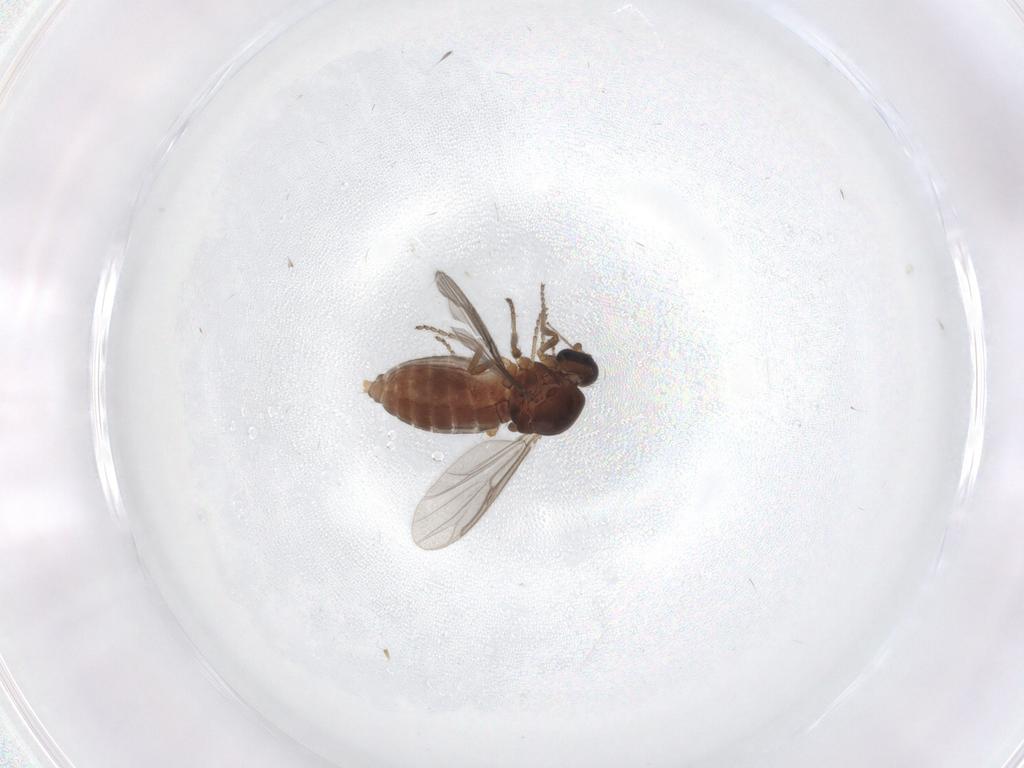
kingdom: Animalia
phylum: Arthropoda
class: Insecta
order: Diptera
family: Ceratopogonidae
